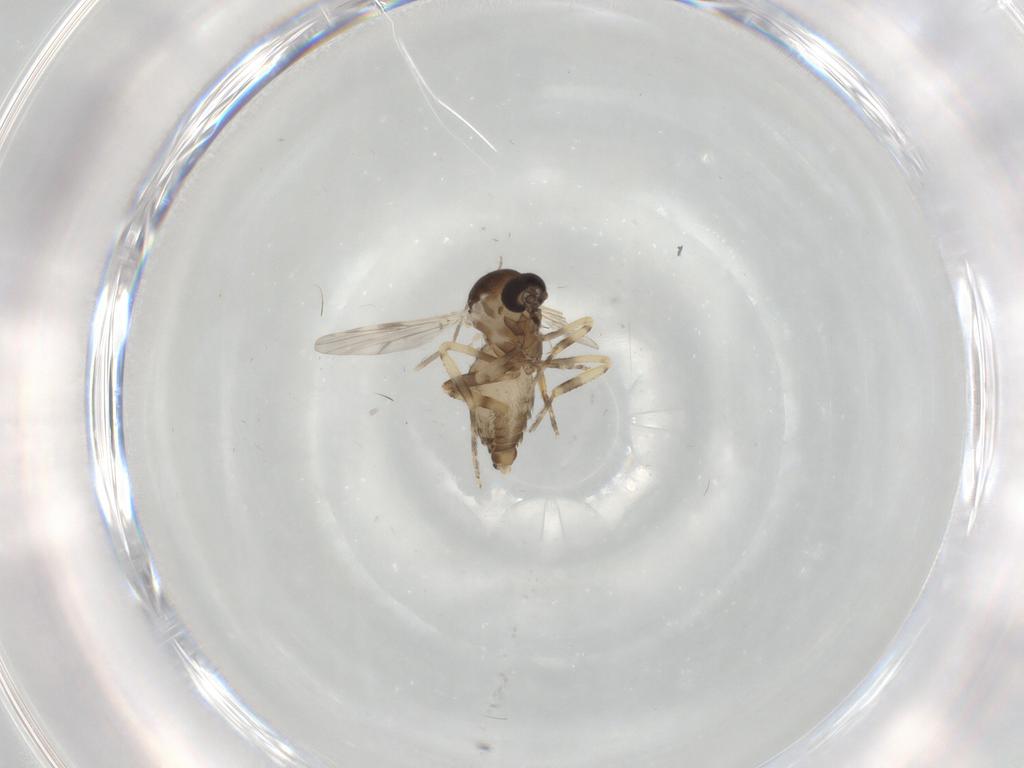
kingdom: Animalia
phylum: Arthropoda
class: Insecta
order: Diptera
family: Ceratopogonidae
